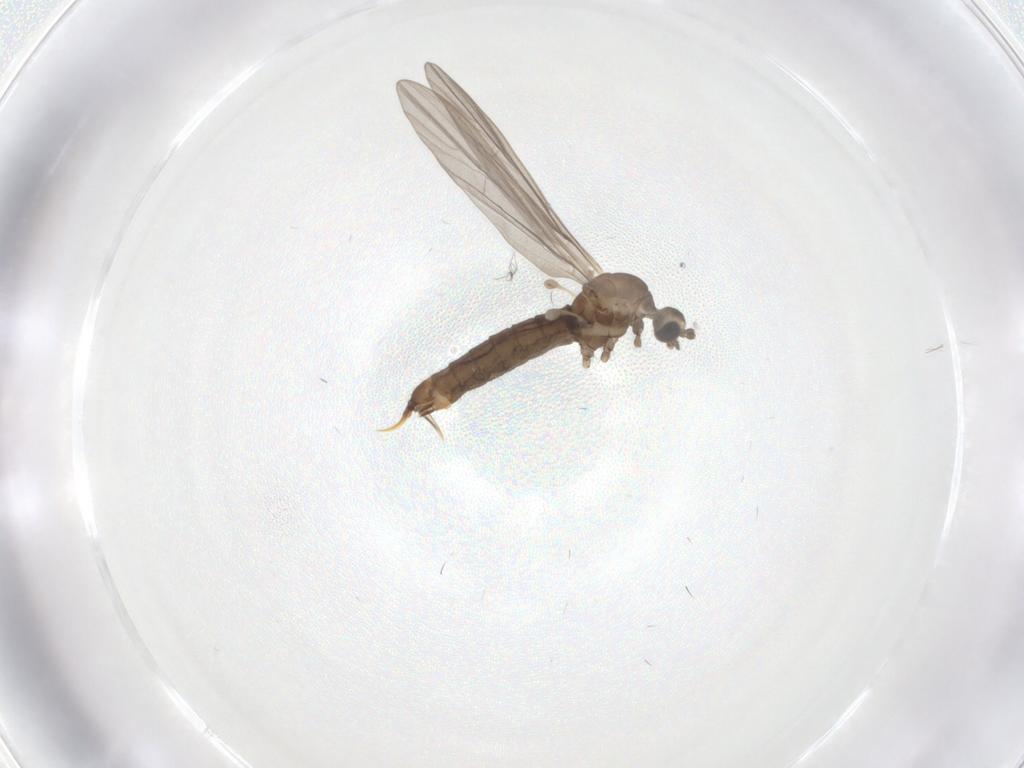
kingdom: Animalia
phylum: Arthropoda
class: Insecta
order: Diptera
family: Limoniidae
